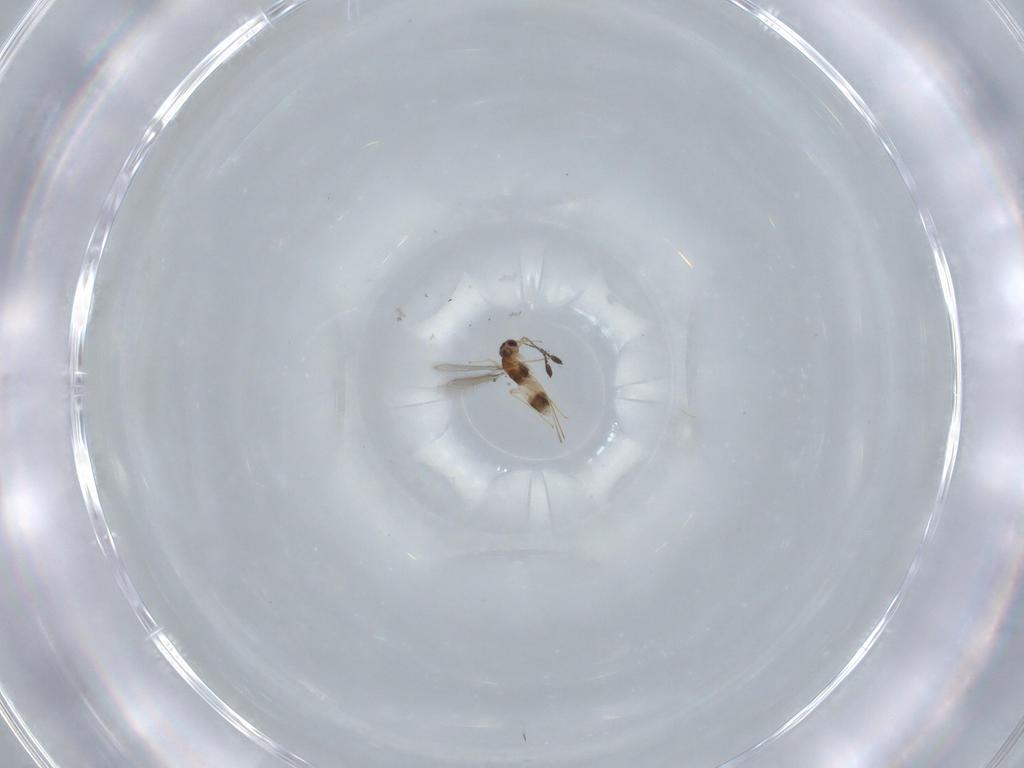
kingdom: Animalia
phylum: Arthropoda
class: Insecta
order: Hymenoptera
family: Mymaridae
